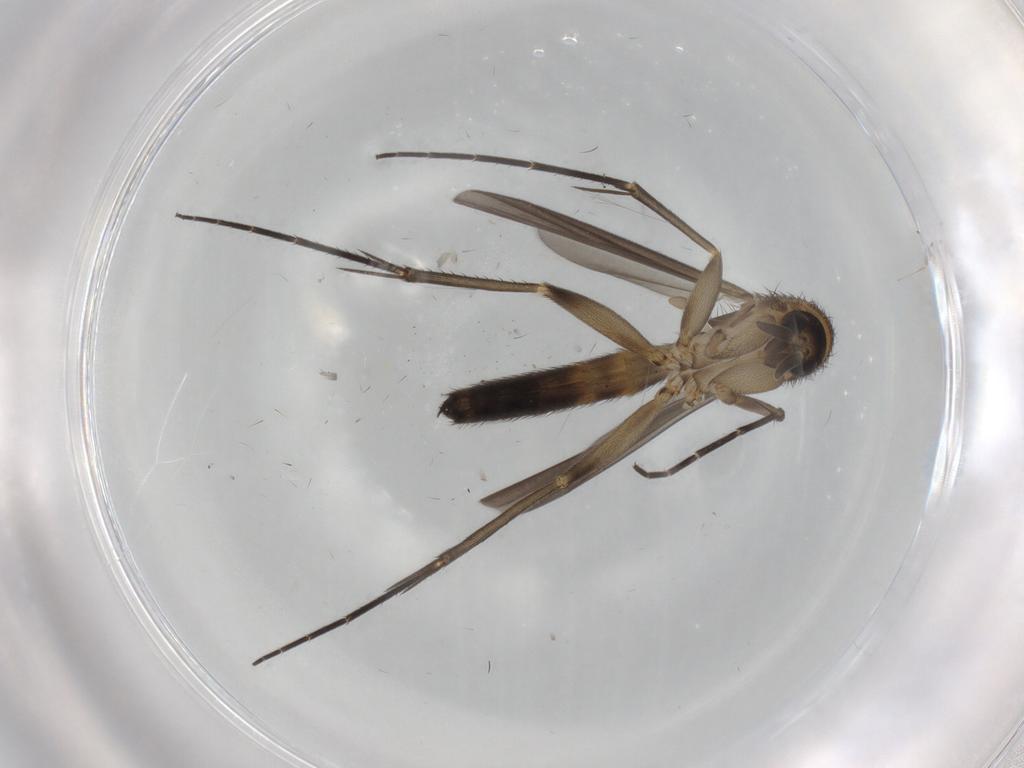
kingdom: Animalia
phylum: Arthropoda
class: Insecta
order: Diptera
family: Mycetophilidae
